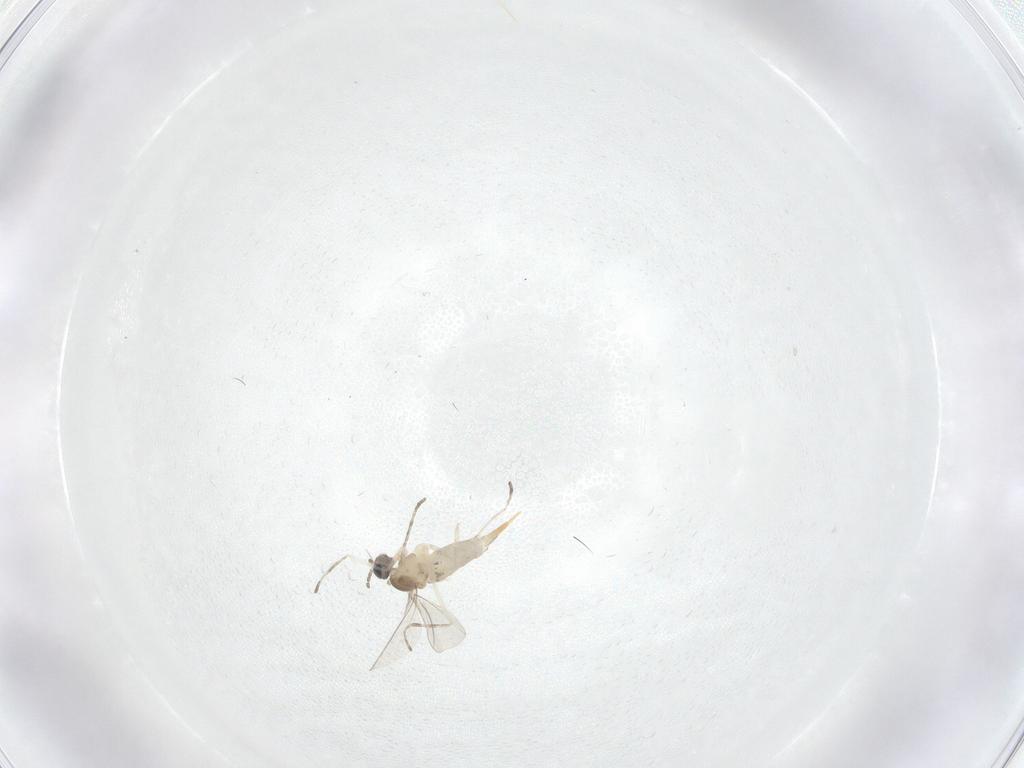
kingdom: Animalia
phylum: Arthropoda
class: Insecta
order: Diptera
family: Cecidomyiidae
